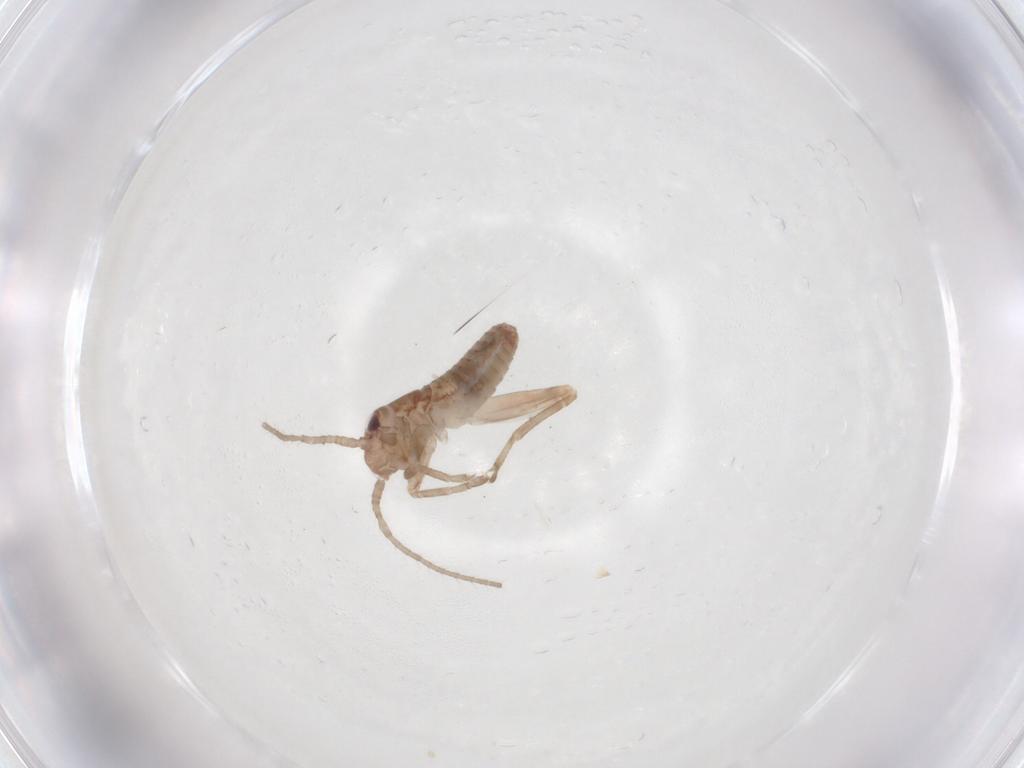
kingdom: Animalia
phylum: Arthropoda
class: Insecta
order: Orthoptera
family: Mogoplistidae
